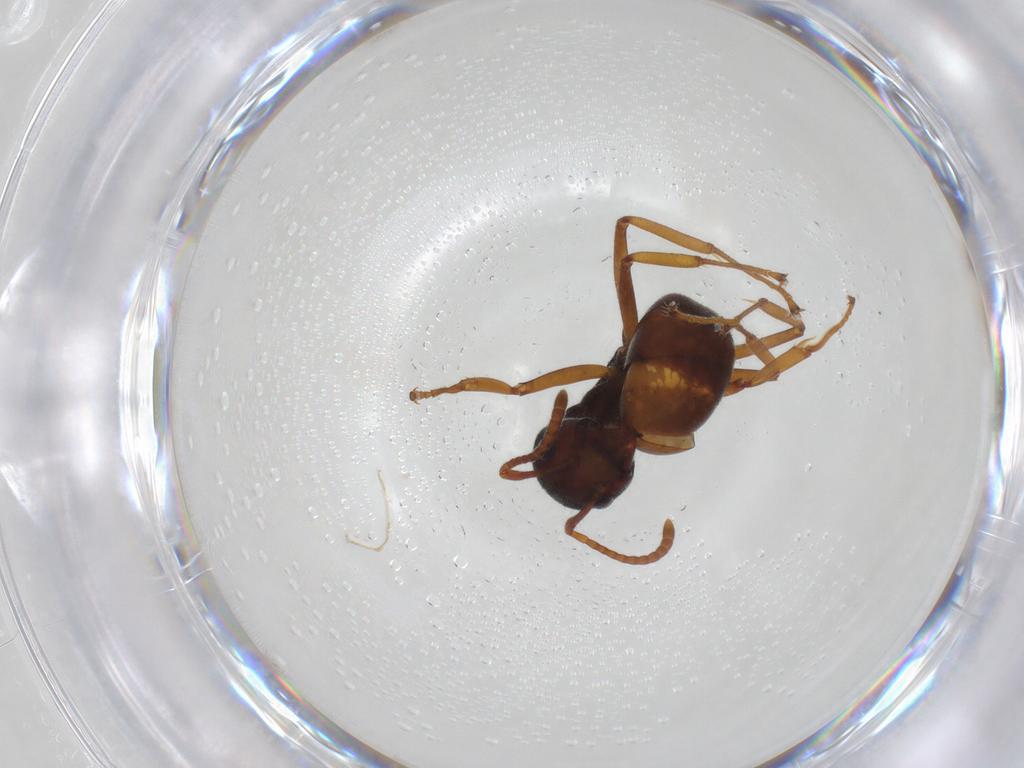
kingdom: Animalia
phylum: Arthropoda
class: Insecta
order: Hymenoptera
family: Formicidae
